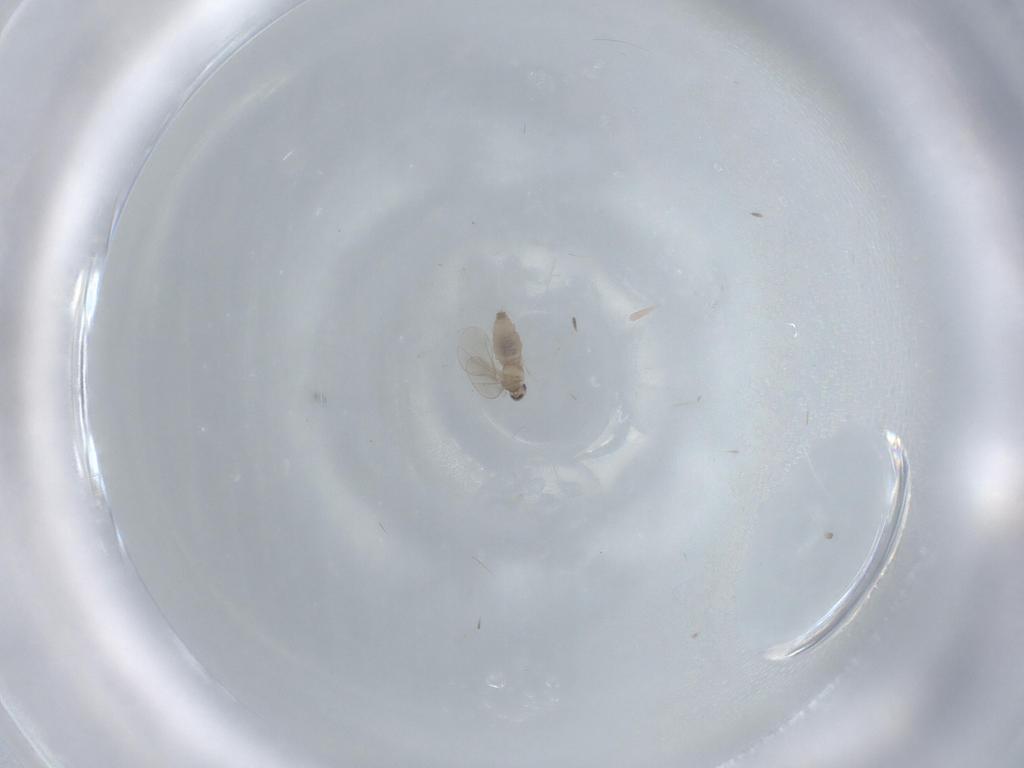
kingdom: Animalia
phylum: Arthropoda
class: Insecta
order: Diptera
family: Cecidomyiidae
